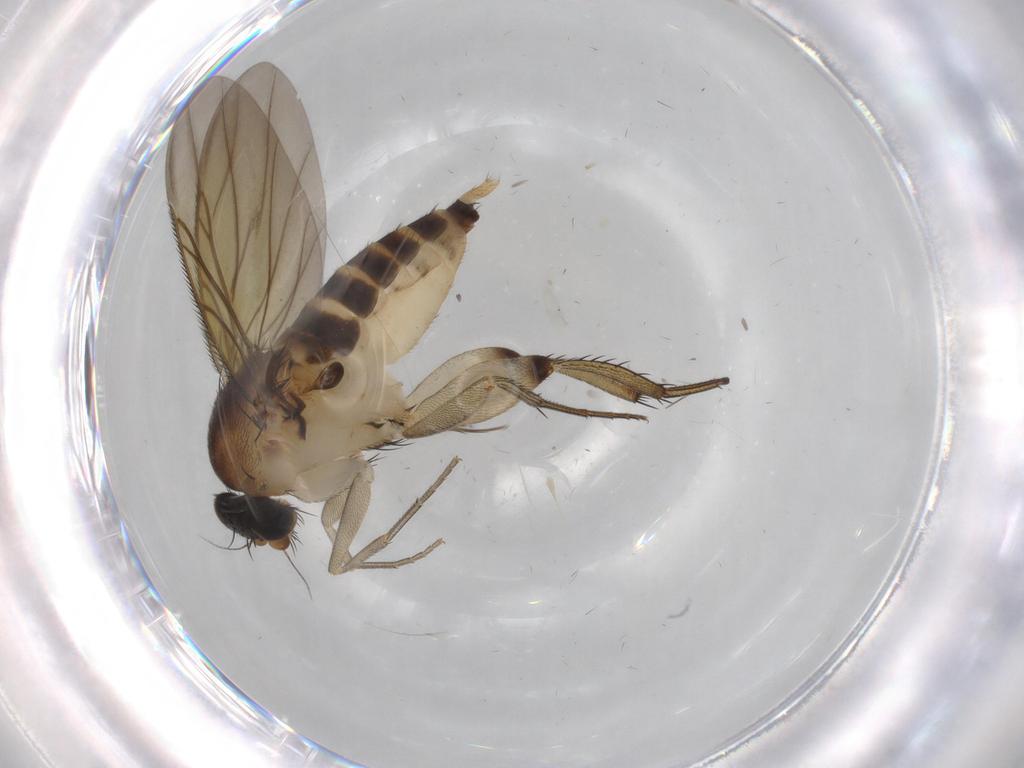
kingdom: Animalia
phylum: Arthropoda
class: Insecta
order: Diptera
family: Phoridae
